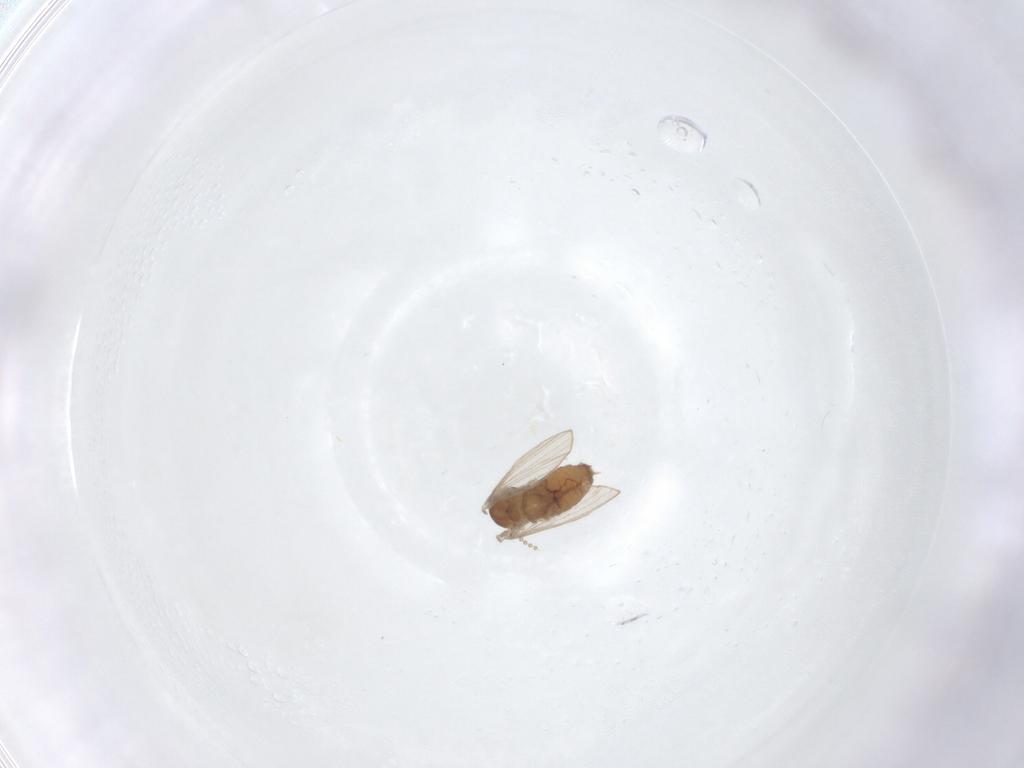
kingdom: Animalia
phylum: Arthropoda
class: Insecta
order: Diptera
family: Psychodidae
